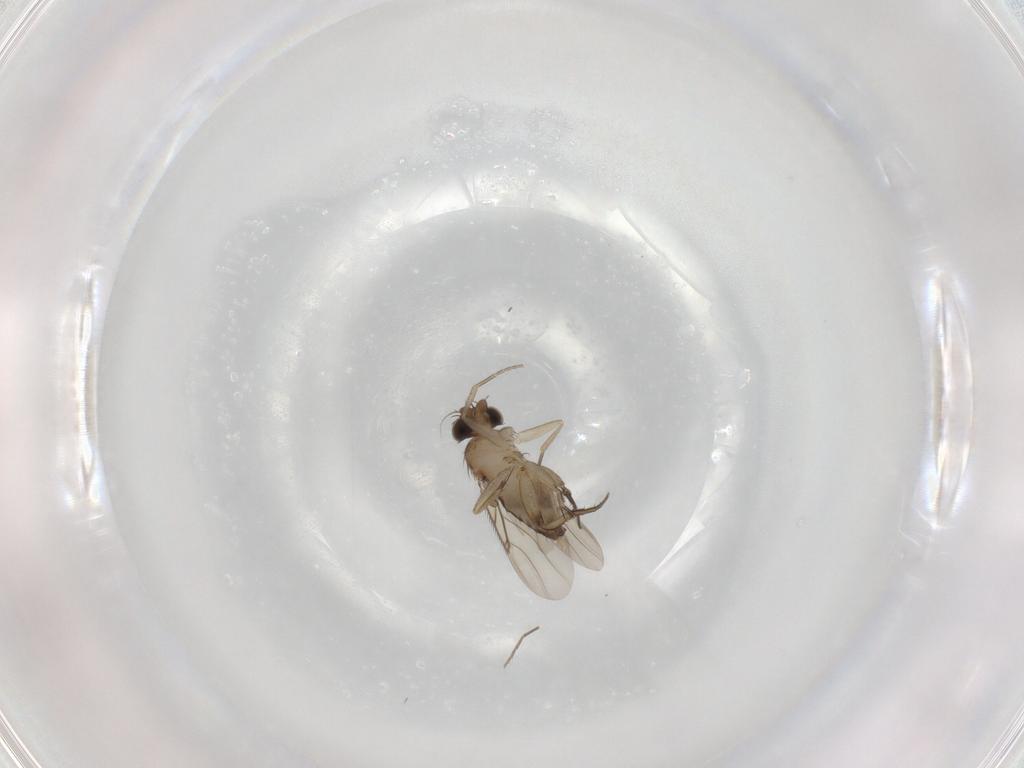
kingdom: Animalia
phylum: Arthropoda
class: Insecta
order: Diptera
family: Phoridae
